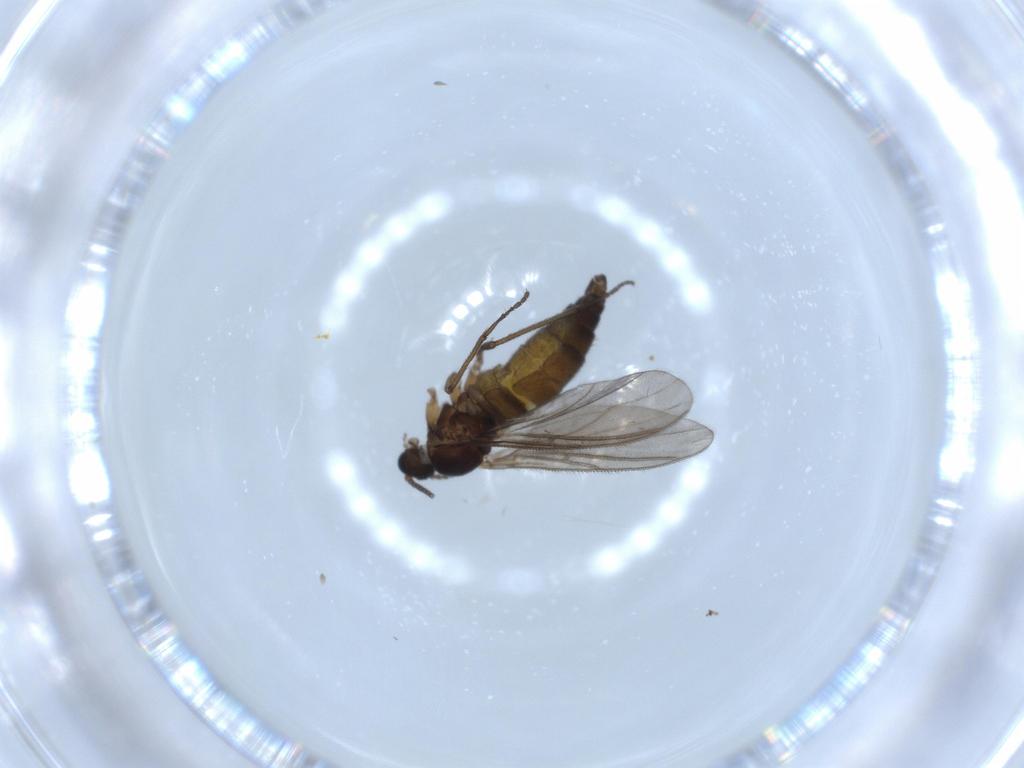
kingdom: Animalia
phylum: Arthropoda
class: Insecta
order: Diptera
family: Sciaridae
